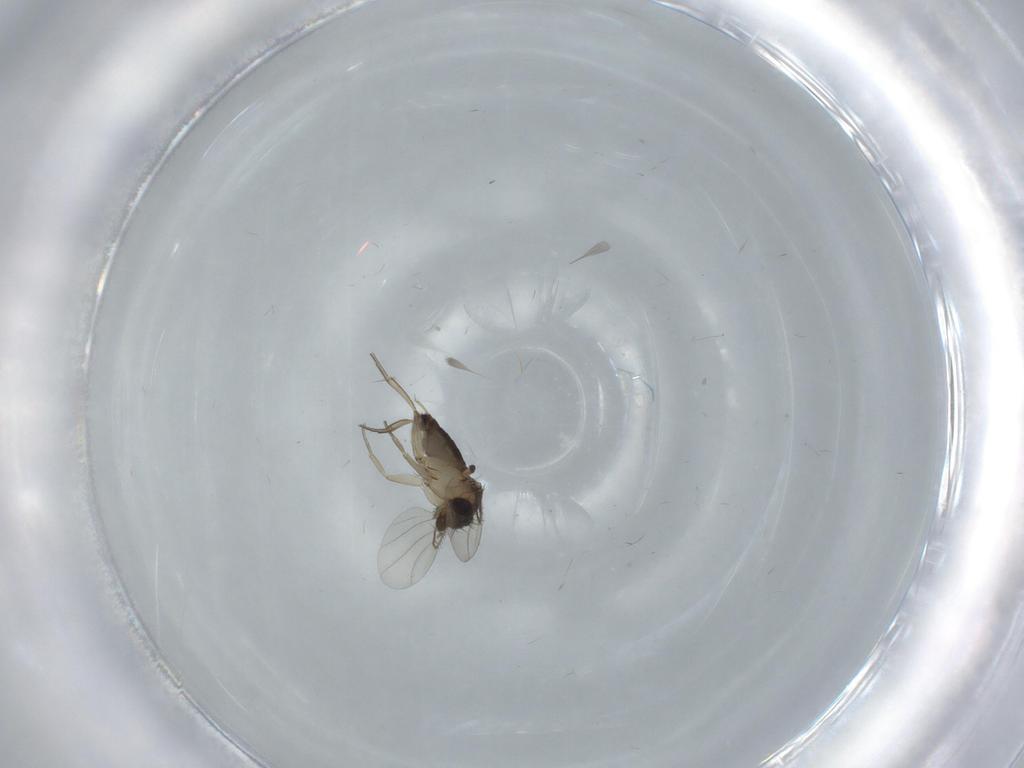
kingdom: Animalia
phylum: Arthropoda
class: Insecta
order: Diptera
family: Phoridae
